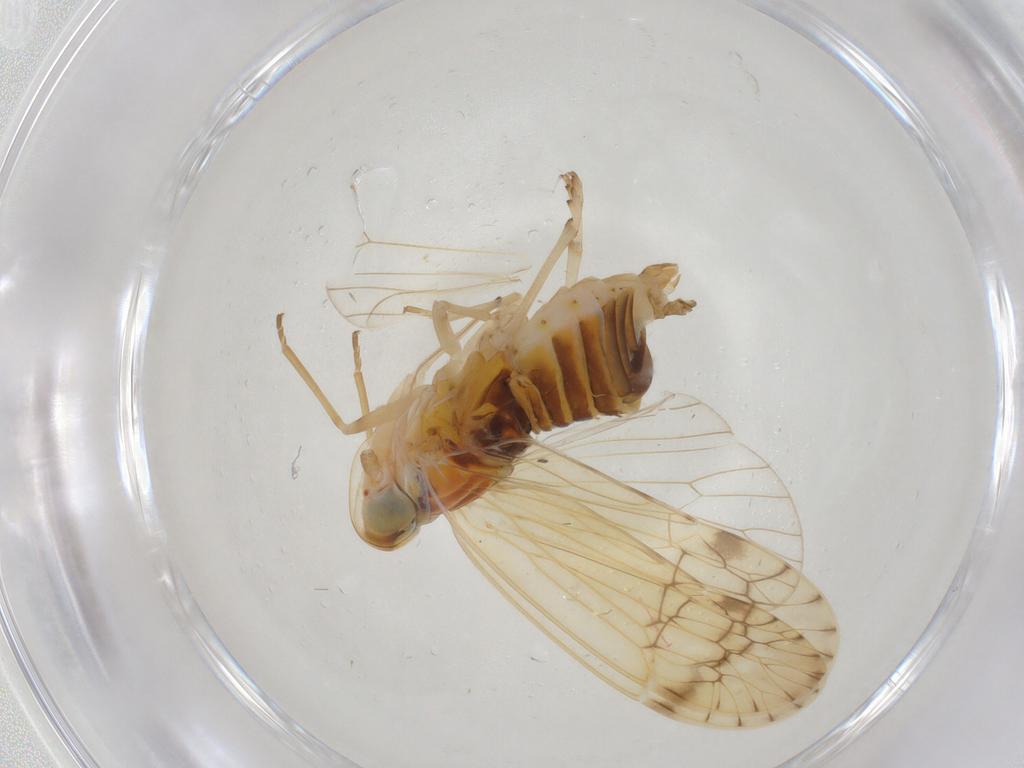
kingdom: Animalia
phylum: Arthropoda
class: Insecta
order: Hemiptera
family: Kinnaridae
